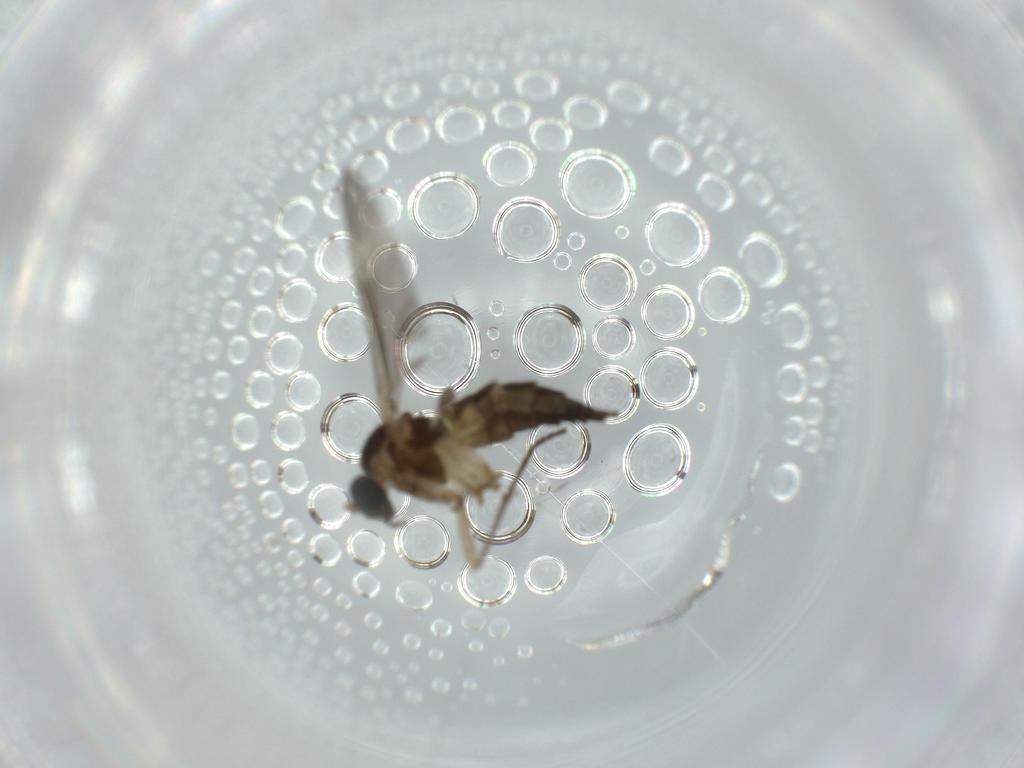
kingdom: Animalia
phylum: Arthropoda
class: Insecta
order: Diptera
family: Sciaridae
